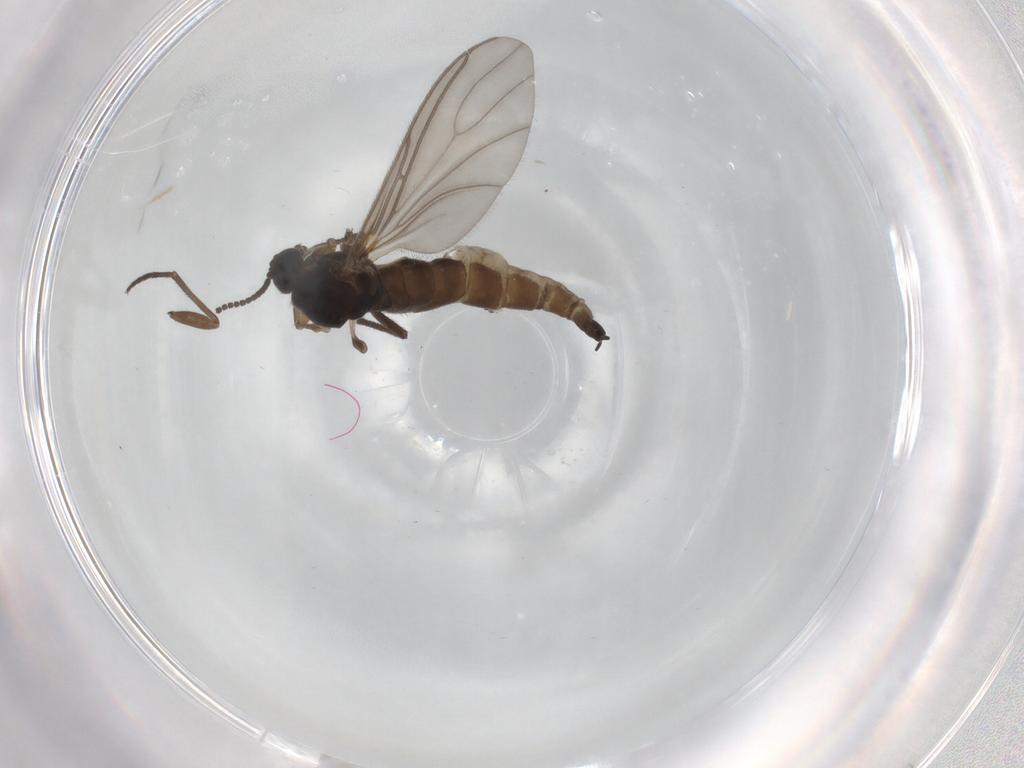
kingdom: Animalia
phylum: Arthropoda
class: Insecta
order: Diptera
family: Sciaridae
